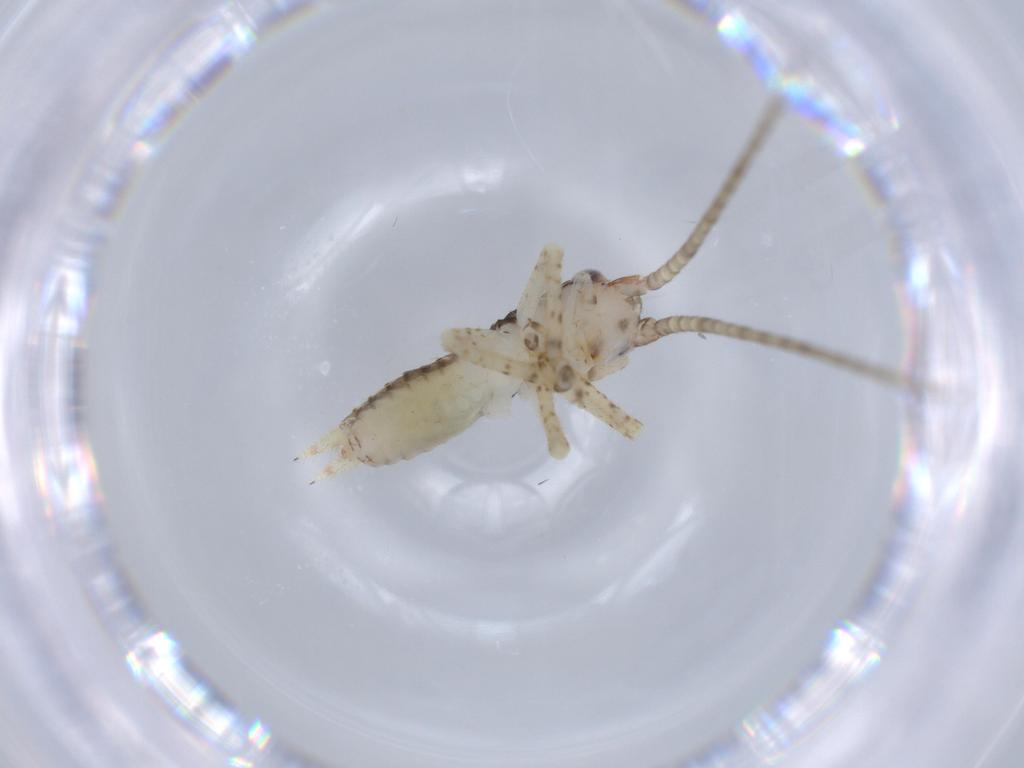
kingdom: Animalia
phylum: Arthropoda
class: Insecta
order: Orthoptera
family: Gryllidae
